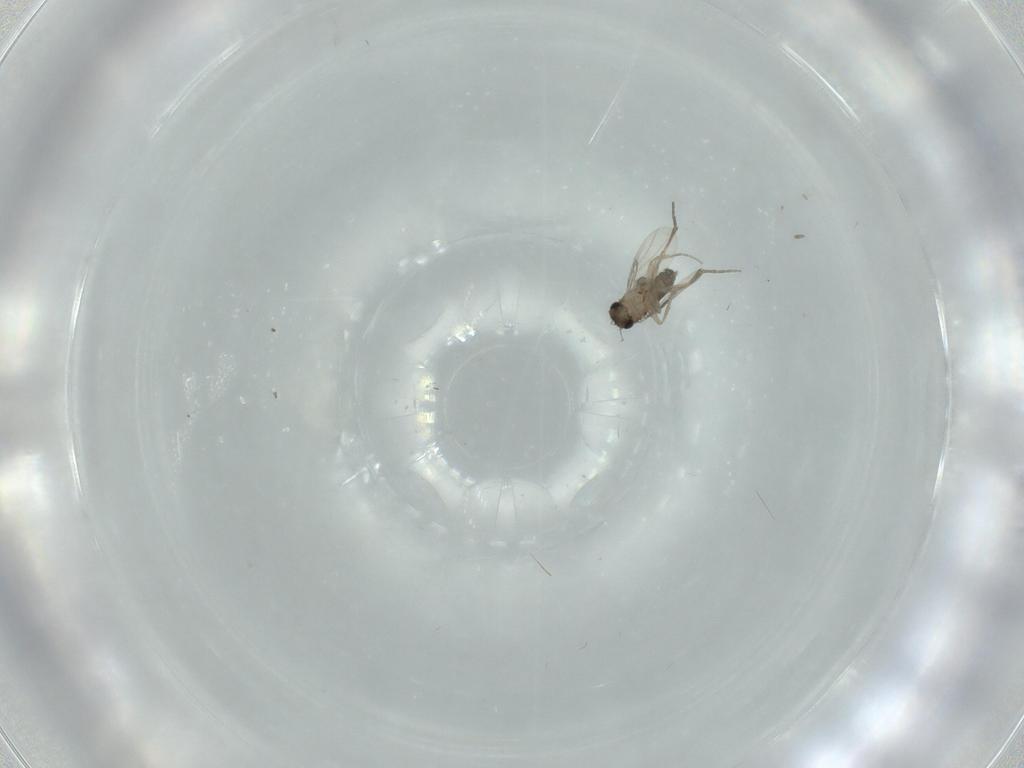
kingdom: Animalia
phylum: Arthropoda
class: Insecta
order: Diptera
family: Phoridae
